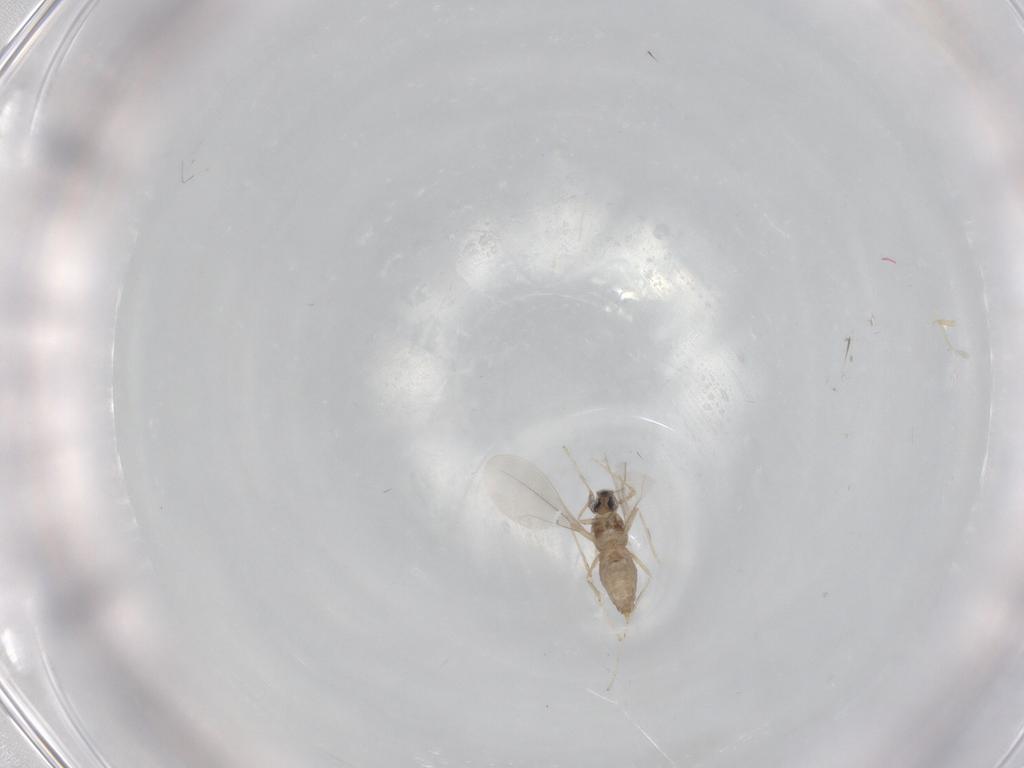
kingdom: Animalia
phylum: Arthropoda
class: Insecta
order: Diptera
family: Cecidomyiidae
